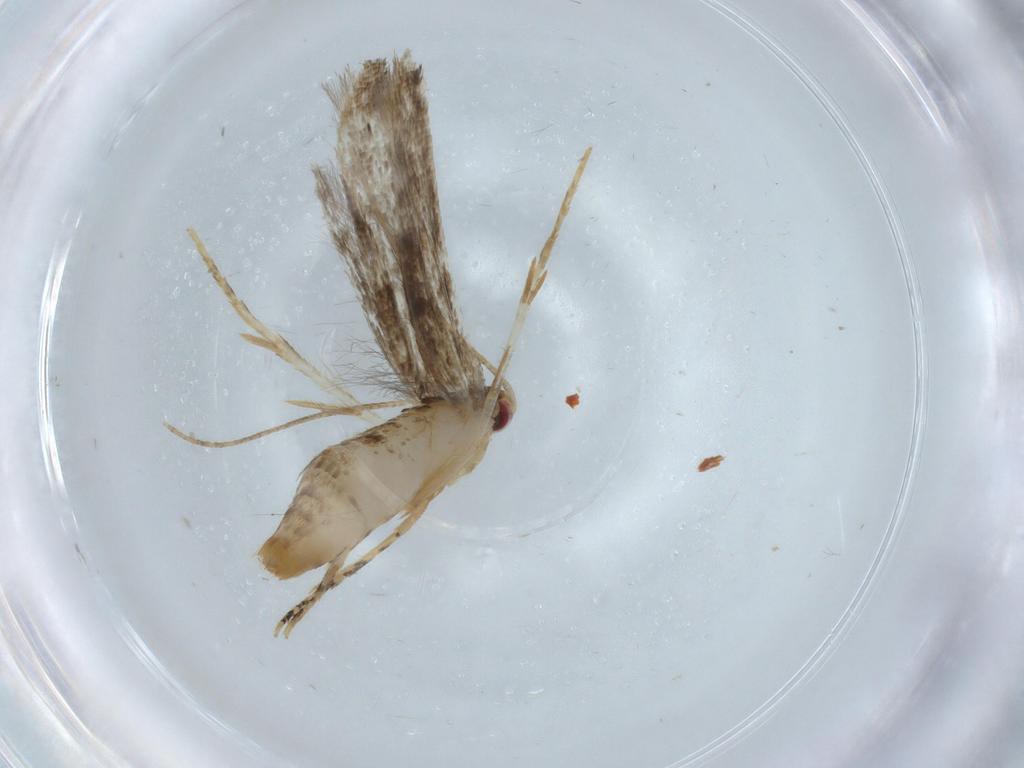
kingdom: Animalia
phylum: Arthropoda
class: Insecta
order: Lepidoptera
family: Momphidae
